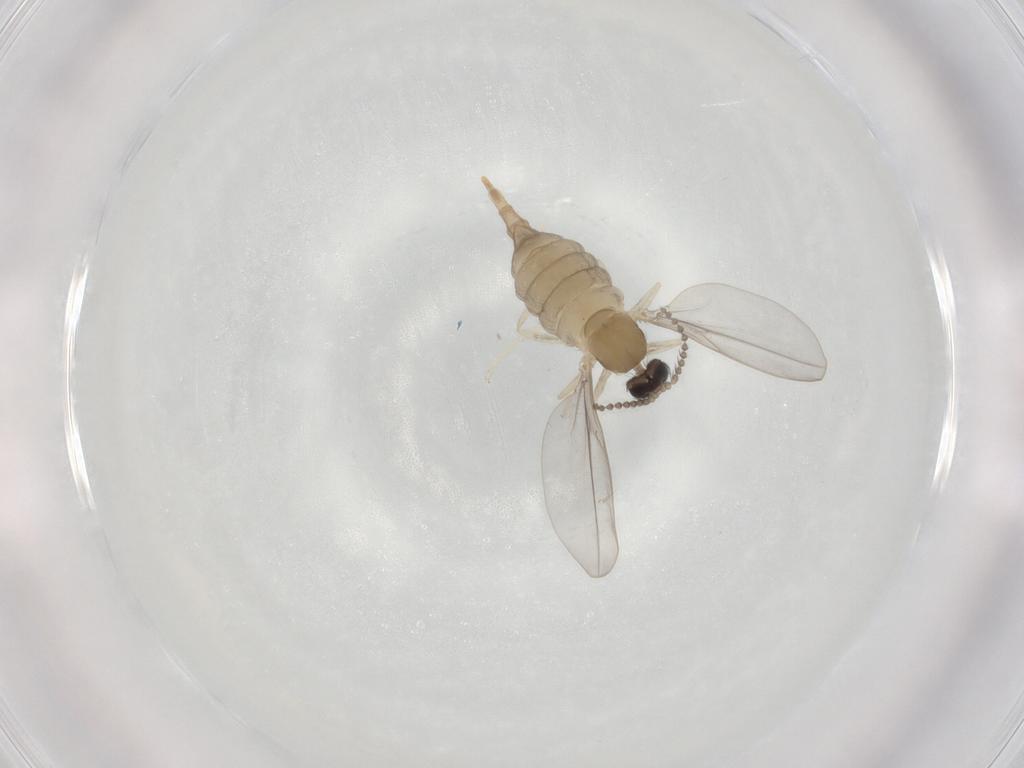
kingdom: Animalia
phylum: Arthropoda
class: Insecta
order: Diptera
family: Cecidomyiidae
